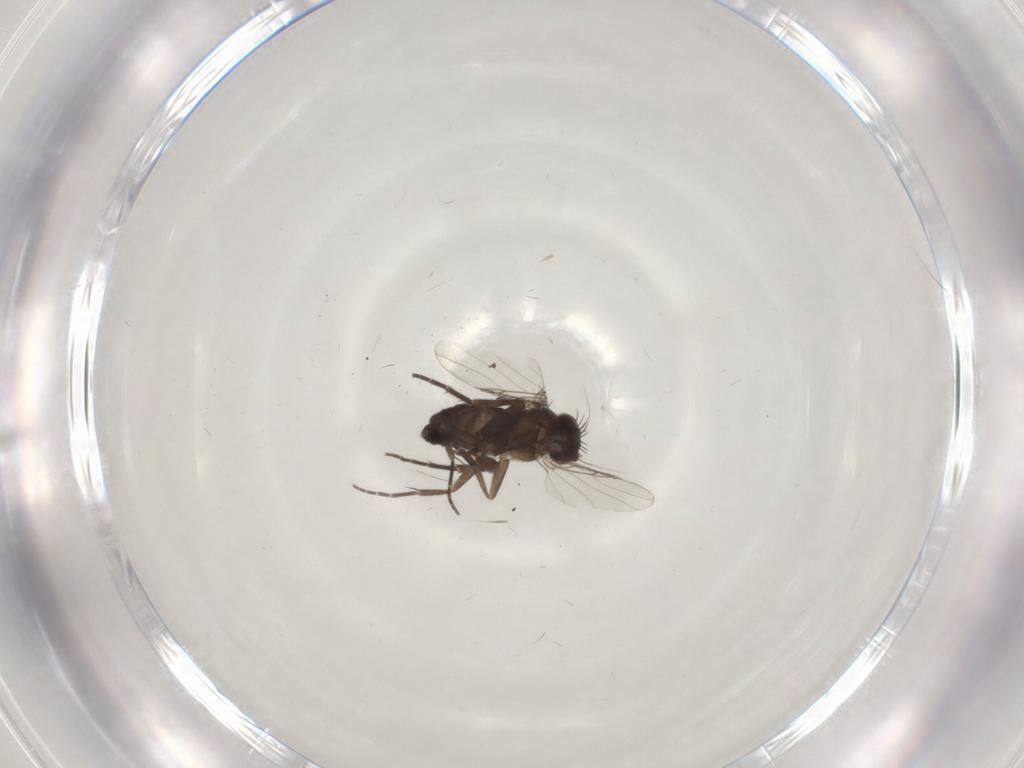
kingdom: Animalia
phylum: Arthropoda
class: Insecta
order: Diptera
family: Phoridae
